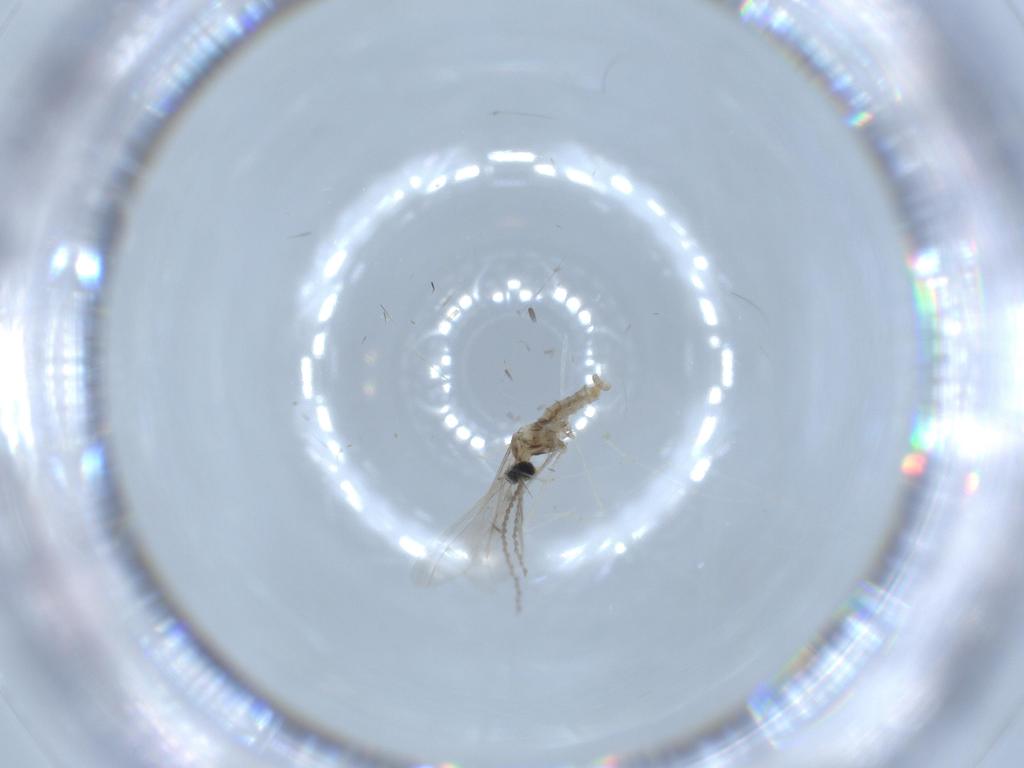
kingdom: Animalia
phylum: Arthropoda
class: Insecta
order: Diptera
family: Cecidomyiidae
